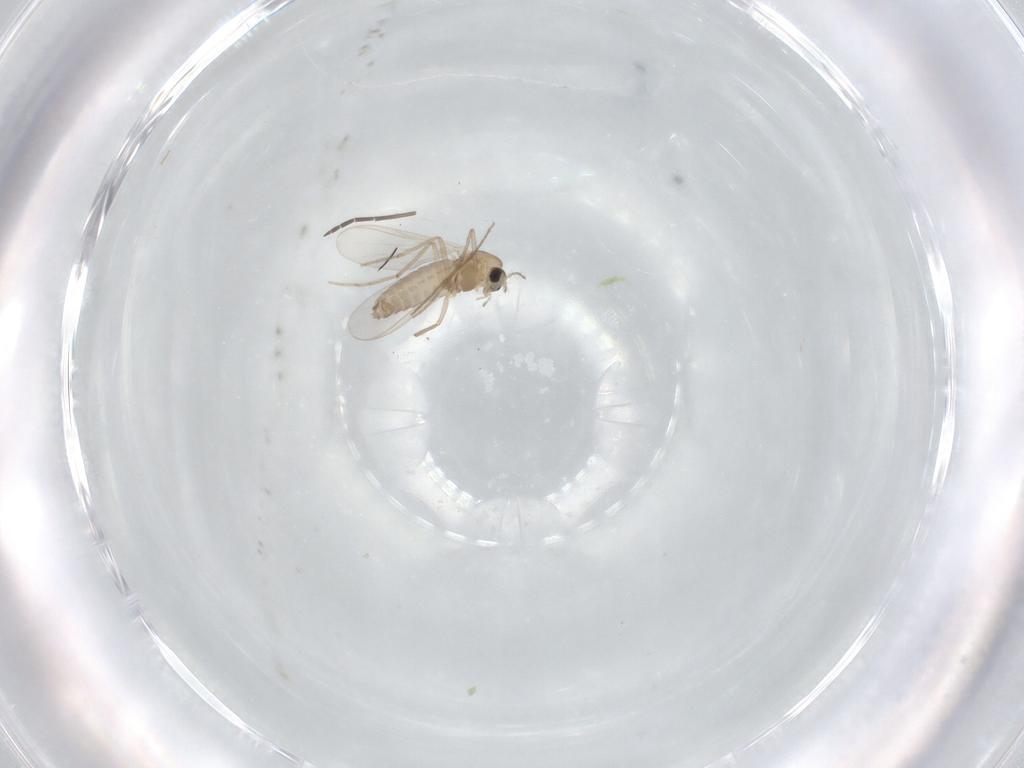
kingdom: Animalia
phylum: Arthropoda
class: Insecta
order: Diptera
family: Chironomidae
